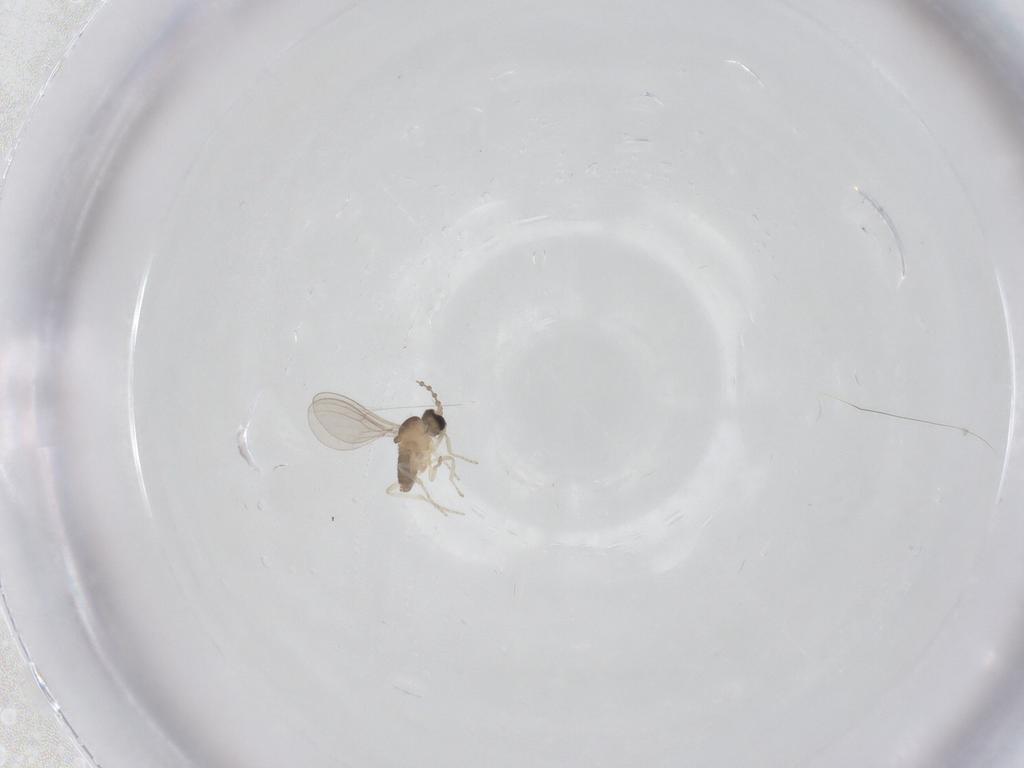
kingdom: Animalia
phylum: Arthropoda
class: Insecta
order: Diptera
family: Cecidomyiidae
